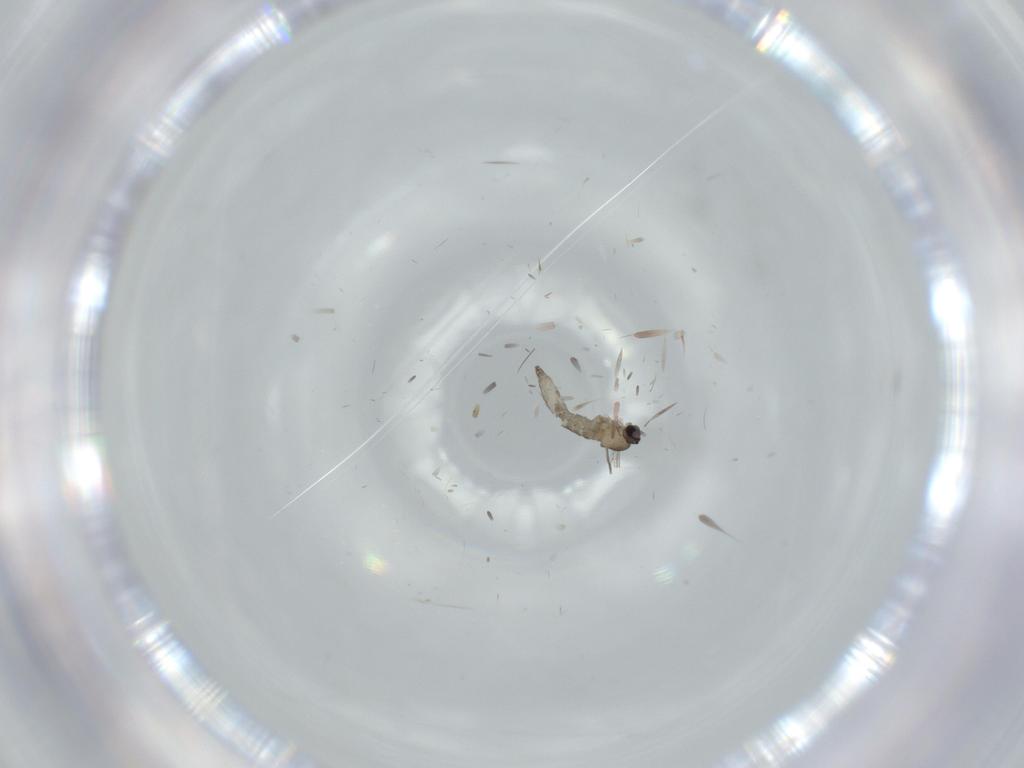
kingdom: Animalia
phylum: Arthropoda
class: Insecta
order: Diptera
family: Cecidomyiidae
